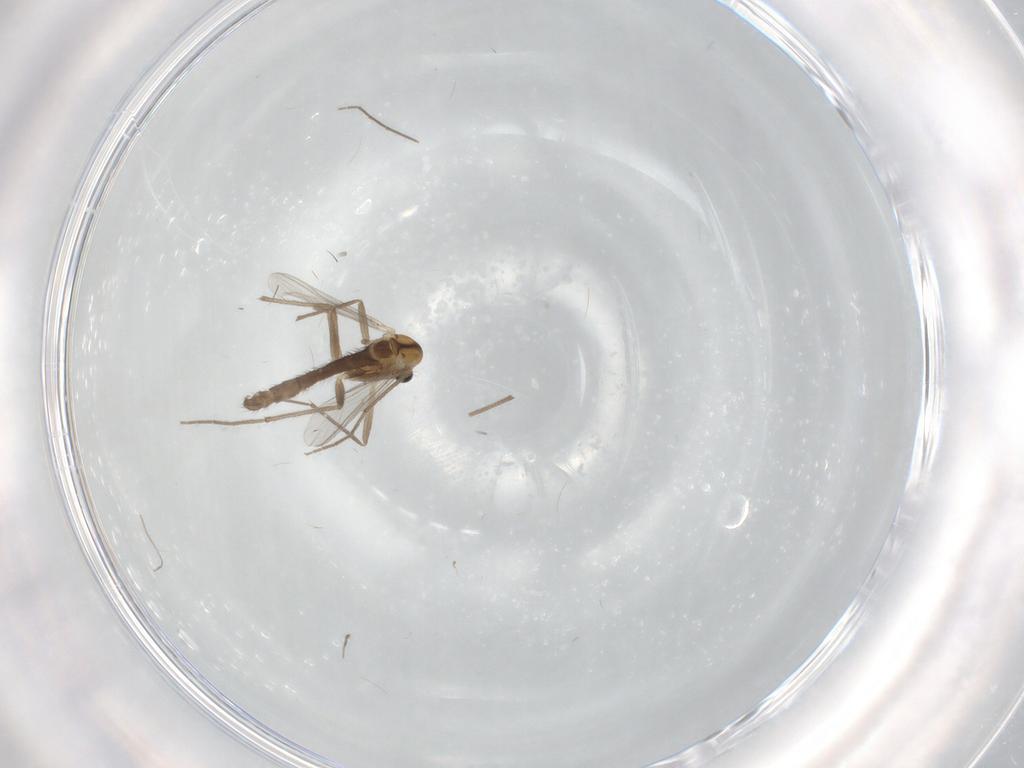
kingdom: Animalia
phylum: Arthropoda
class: Insecta
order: Diptera
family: Chironomidae
